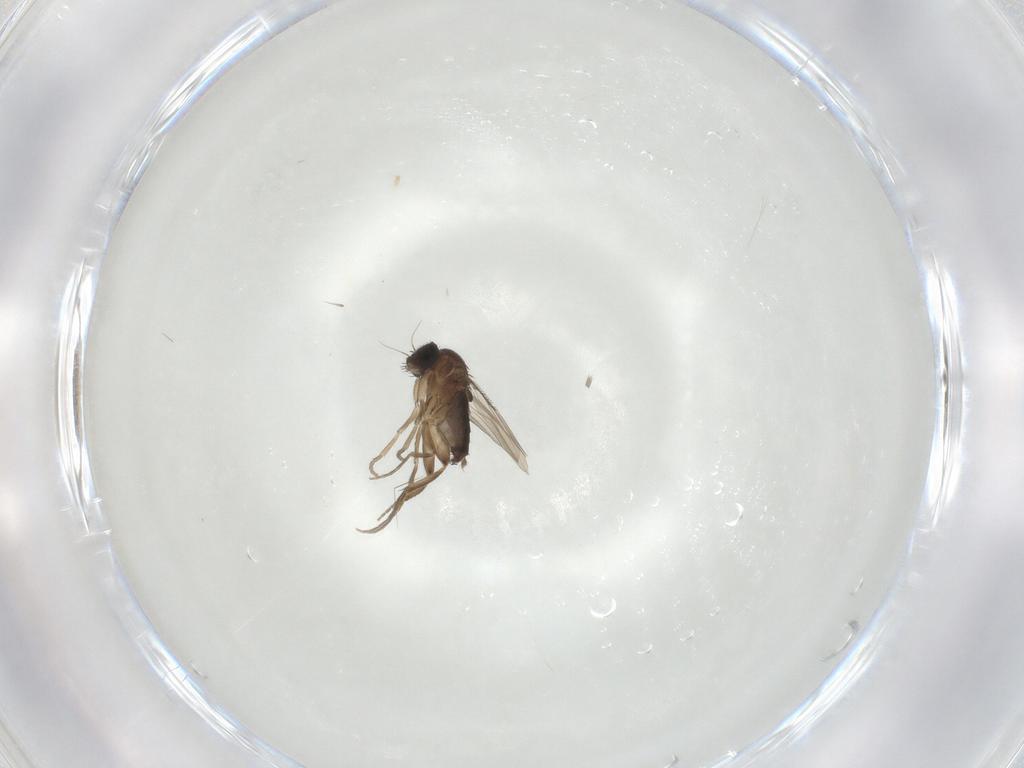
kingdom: Animalia
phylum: Arthropoda
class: Insecta
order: Diptera
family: Phoridae
